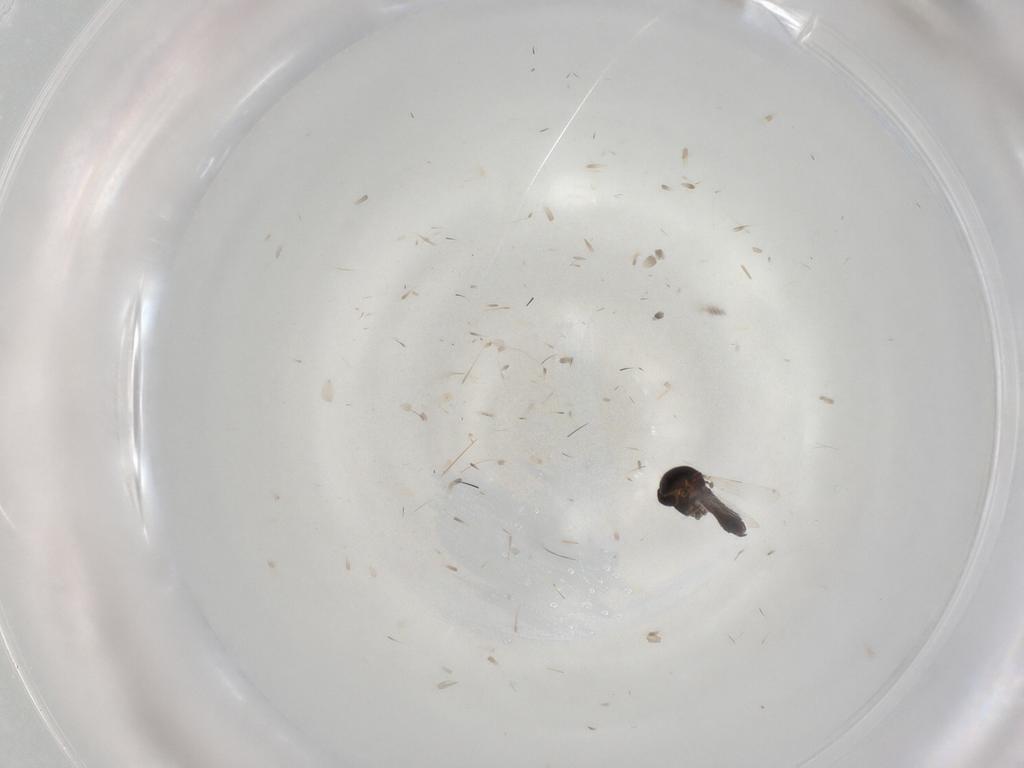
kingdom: Animalia
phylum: Arthropoda
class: Insecta
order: Diptera
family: Ceratopogonidae
